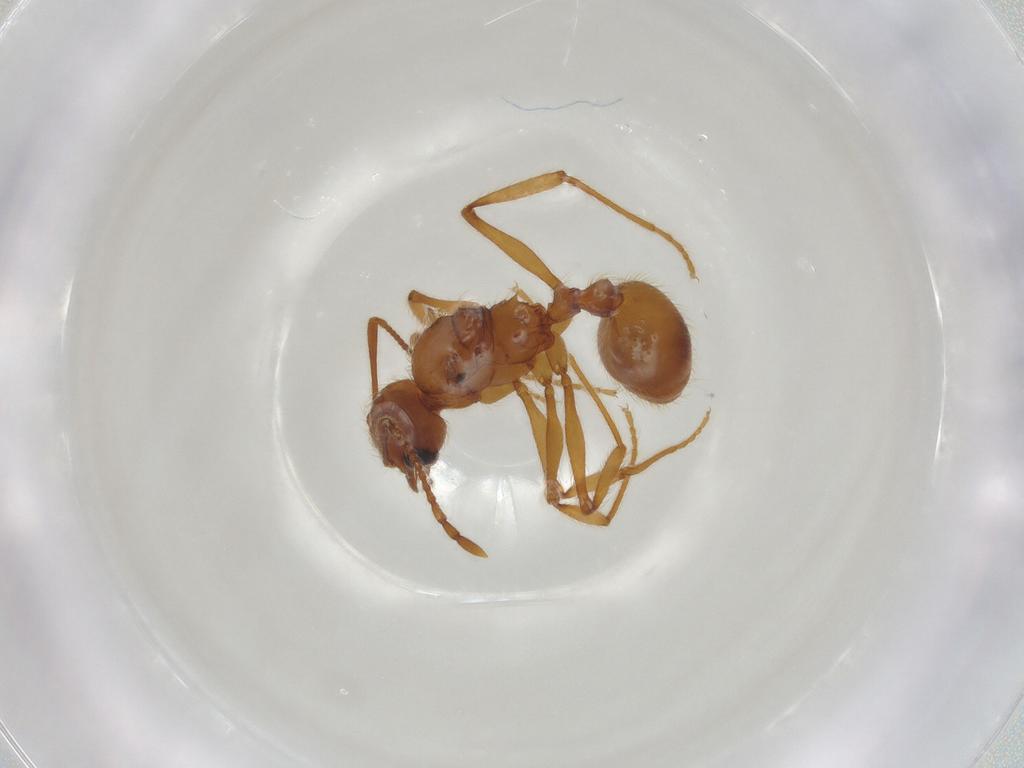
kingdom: Animalia
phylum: Arthropoda
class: Insecta
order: Hymenoptera
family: Formicidae
